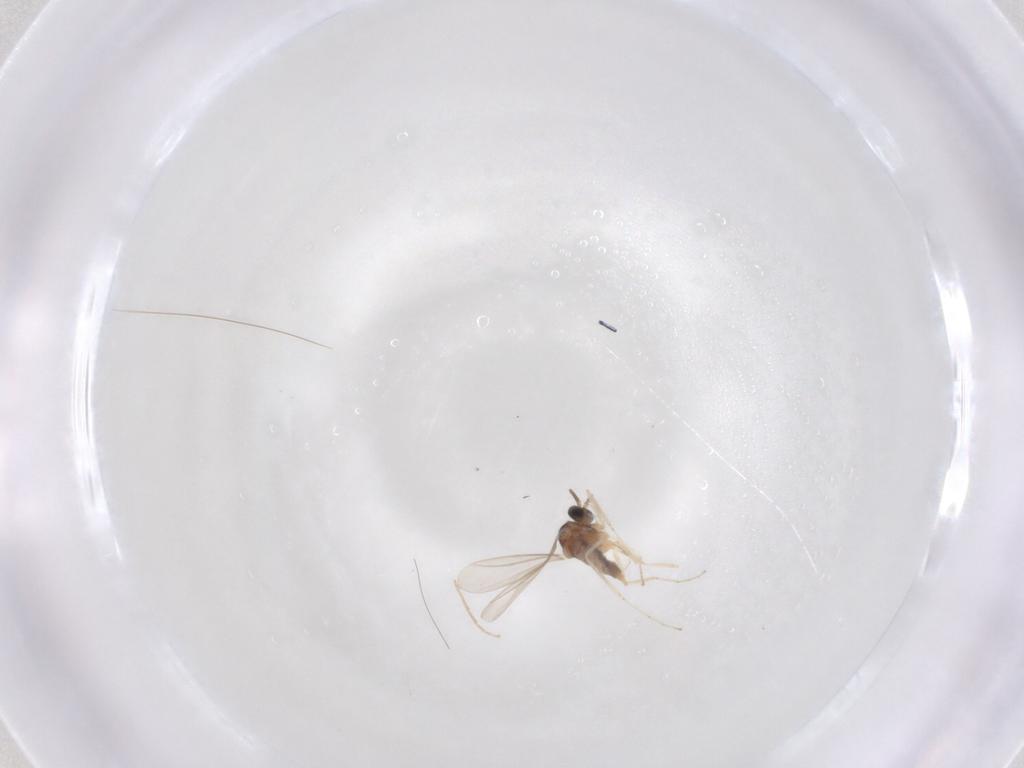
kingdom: Animalia
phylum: Arthropoda
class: Insecta
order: Diptera
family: Cecidomyiidae
